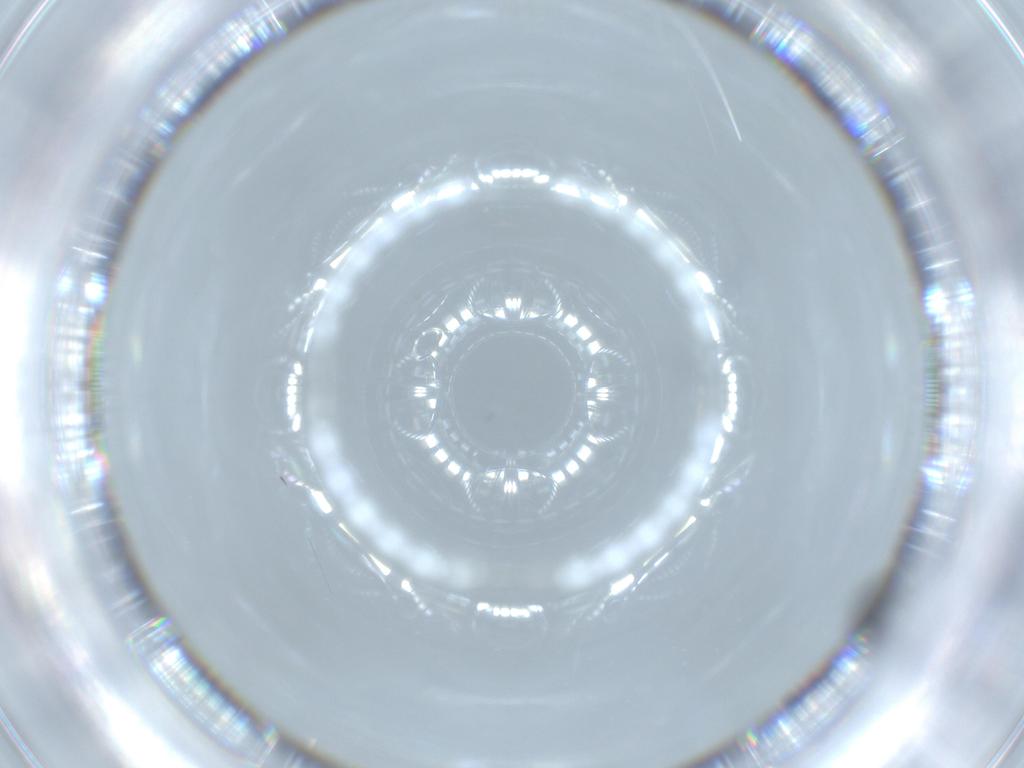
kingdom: Animalia
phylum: Arthropoda
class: Insecta
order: Hymenoptera
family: Scelionidae
